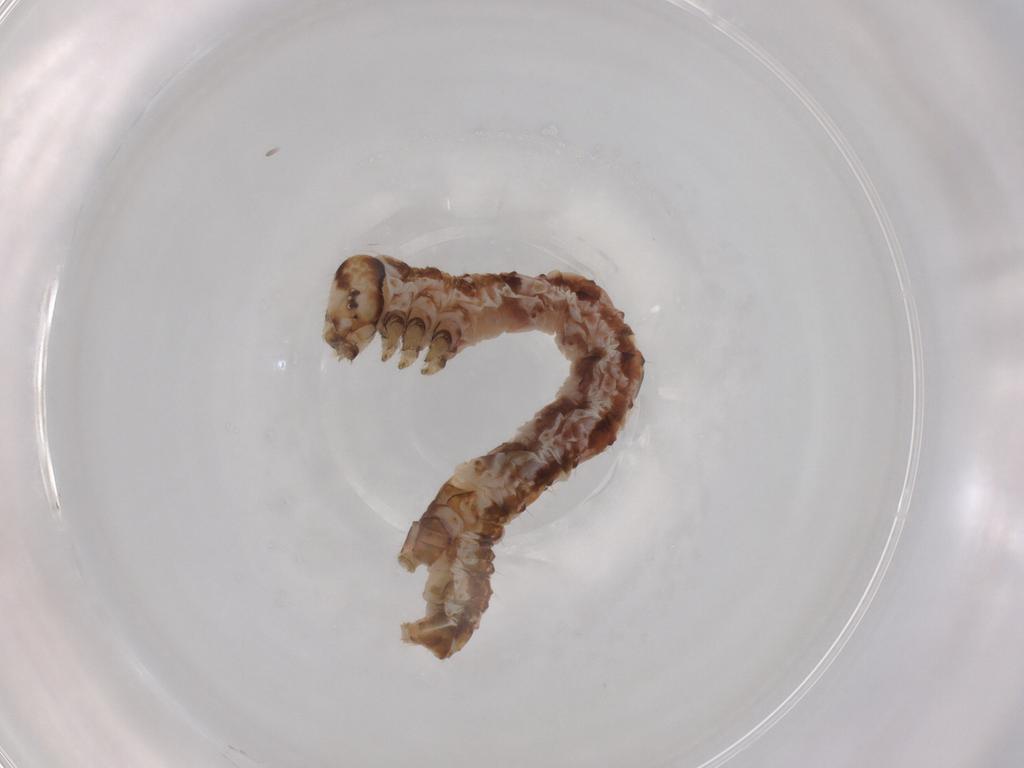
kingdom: Animalia
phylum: Arthropoda
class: Insecta
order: Lepidoptera
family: Geometridae
